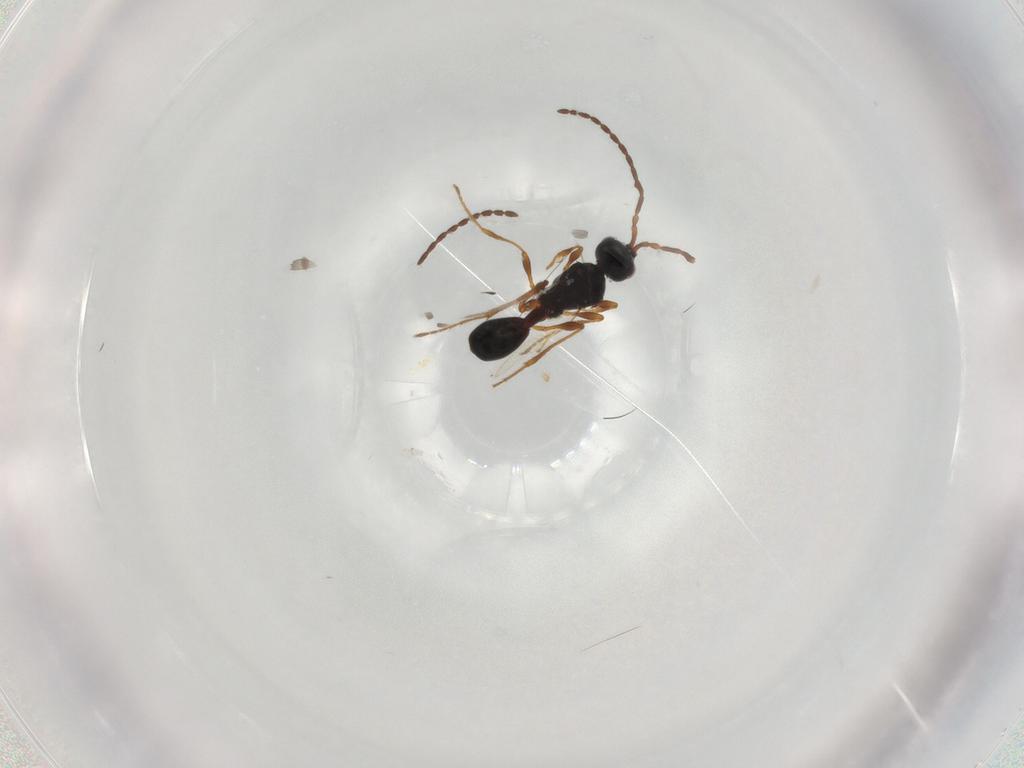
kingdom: Animalia
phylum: Arthropoda
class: Insecta
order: Hymenoptera
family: Diapriidae
